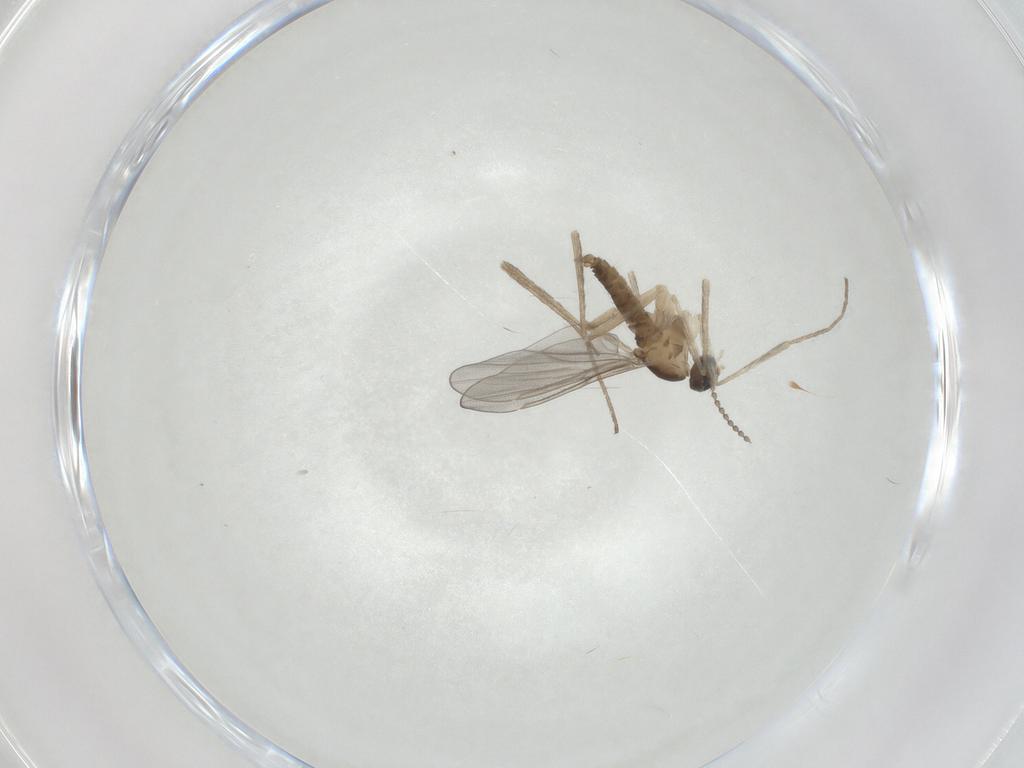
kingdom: Animalia
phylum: Arthropoda
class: Insecta
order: Diptera
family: Cecidomyiidae
